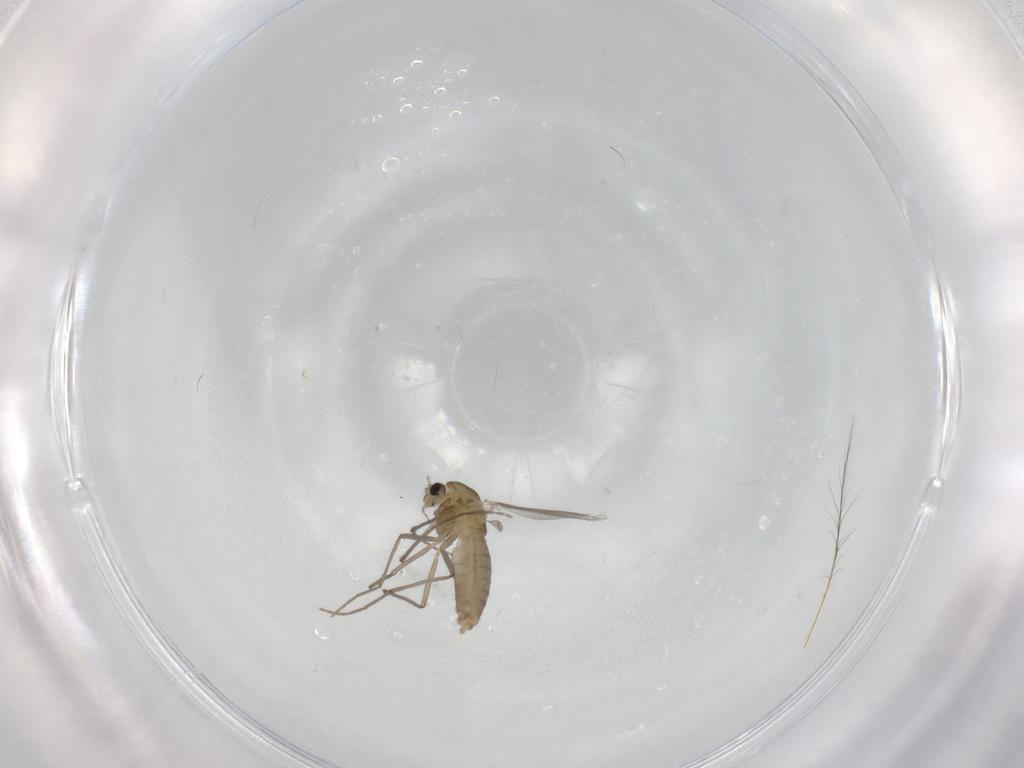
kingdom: Animalia
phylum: Arthropoda
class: Insecta
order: Diptera
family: Chironomidae
